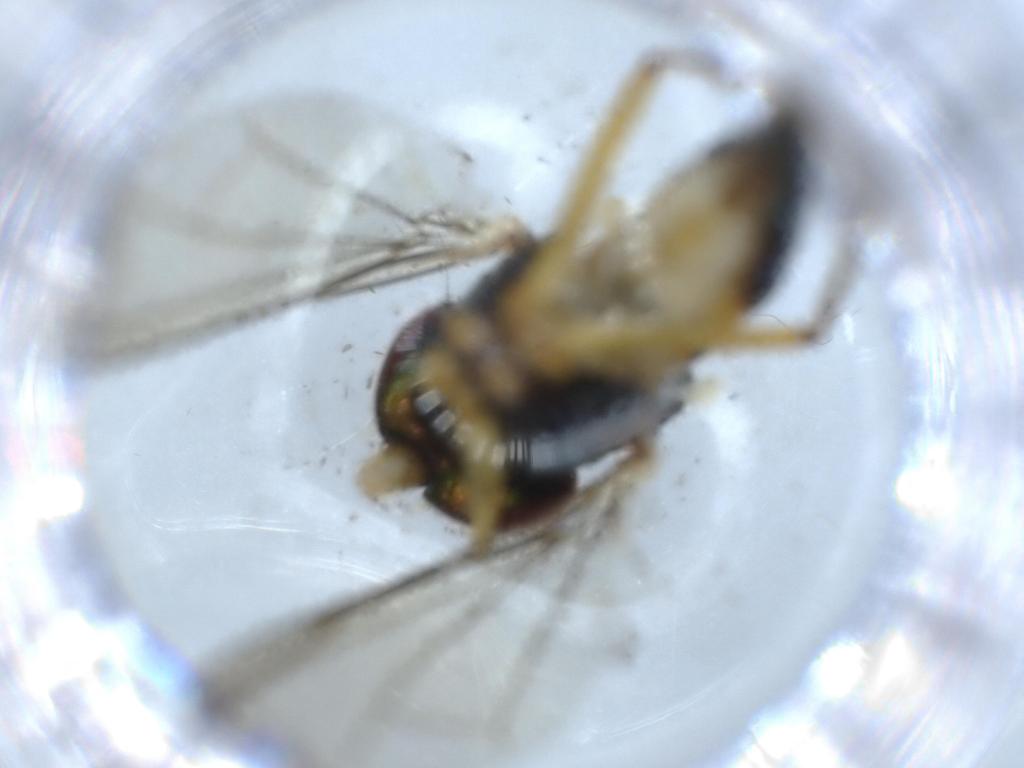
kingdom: Animalia
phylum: Arthropoda
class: Insecta
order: Diptera
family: Dolichopodidae
